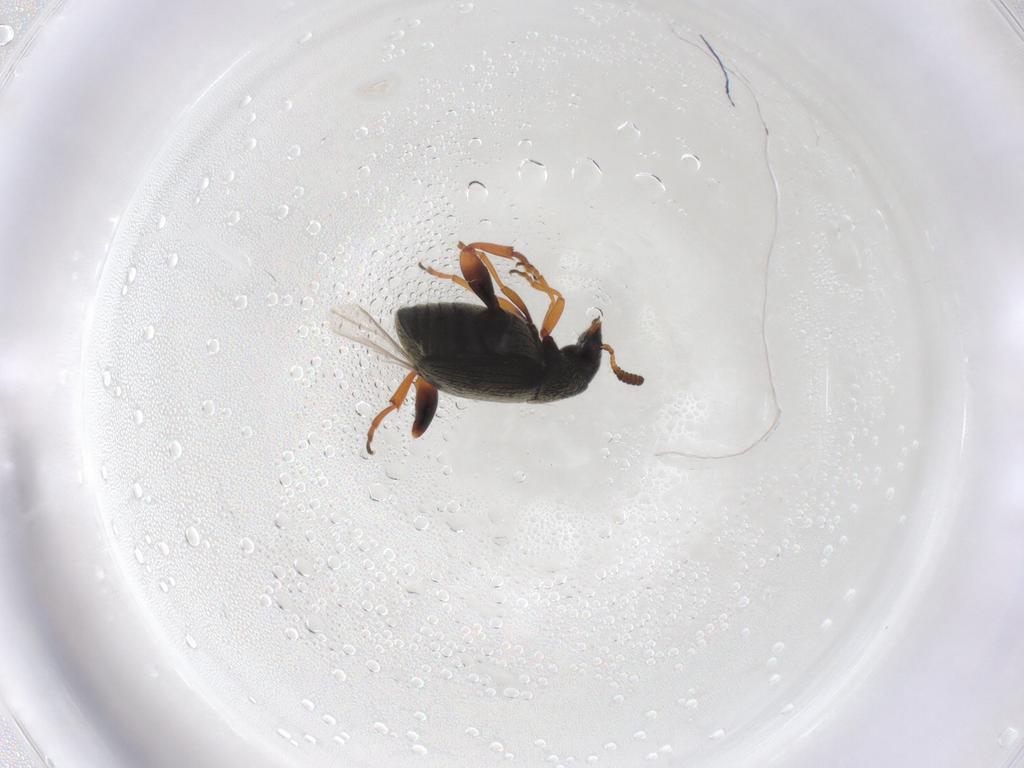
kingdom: Animalia
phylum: Arthropoda
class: Insecta
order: Coleoptera
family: Chrysomelidae
